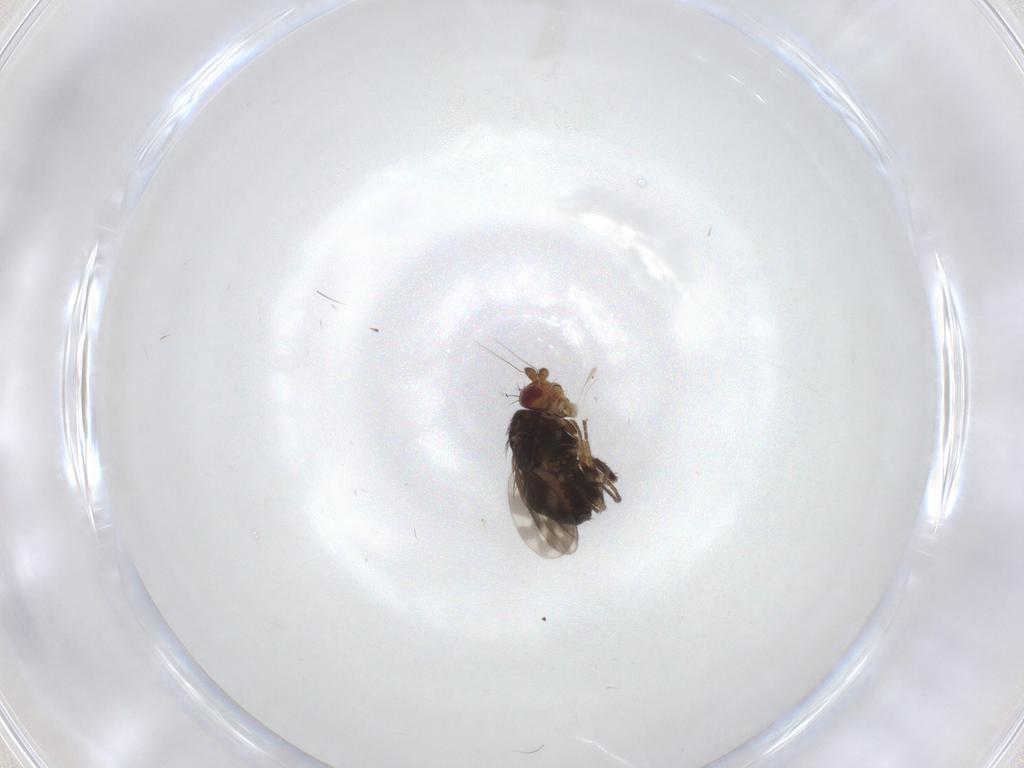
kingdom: Animalia
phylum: Arthropoda
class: Insecta
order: Diptera
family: Sphaeroceridae
